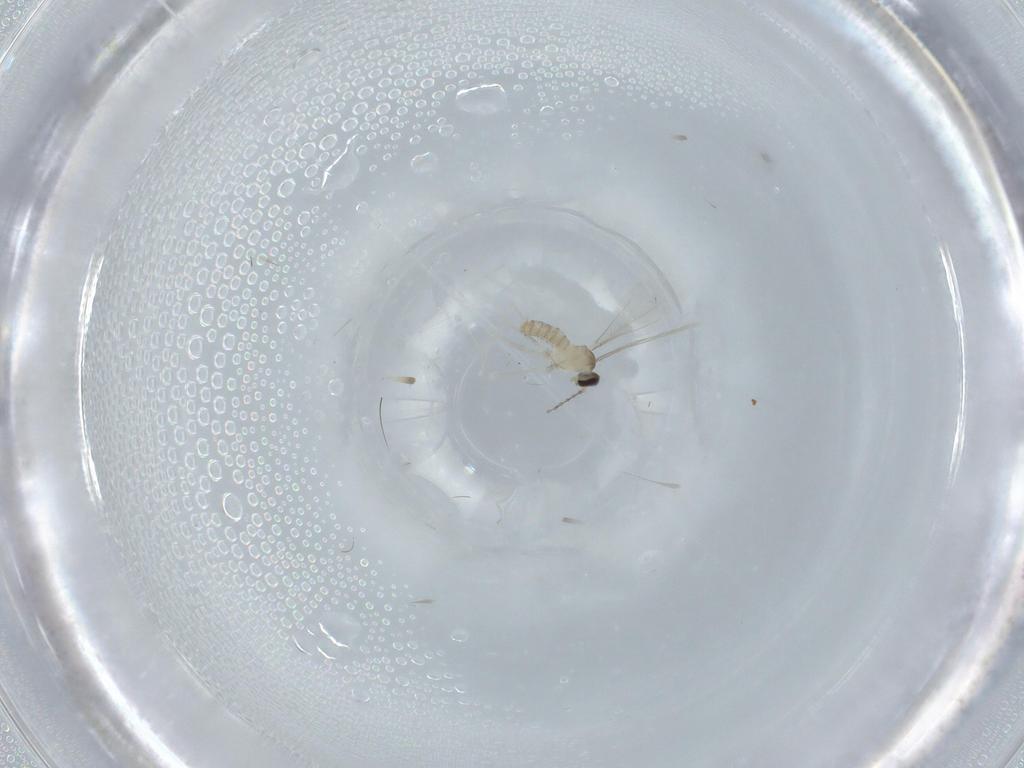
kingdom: Animalia
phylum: Arthropoda
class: Insecta
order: Diptera
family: Cecidomyiidae
